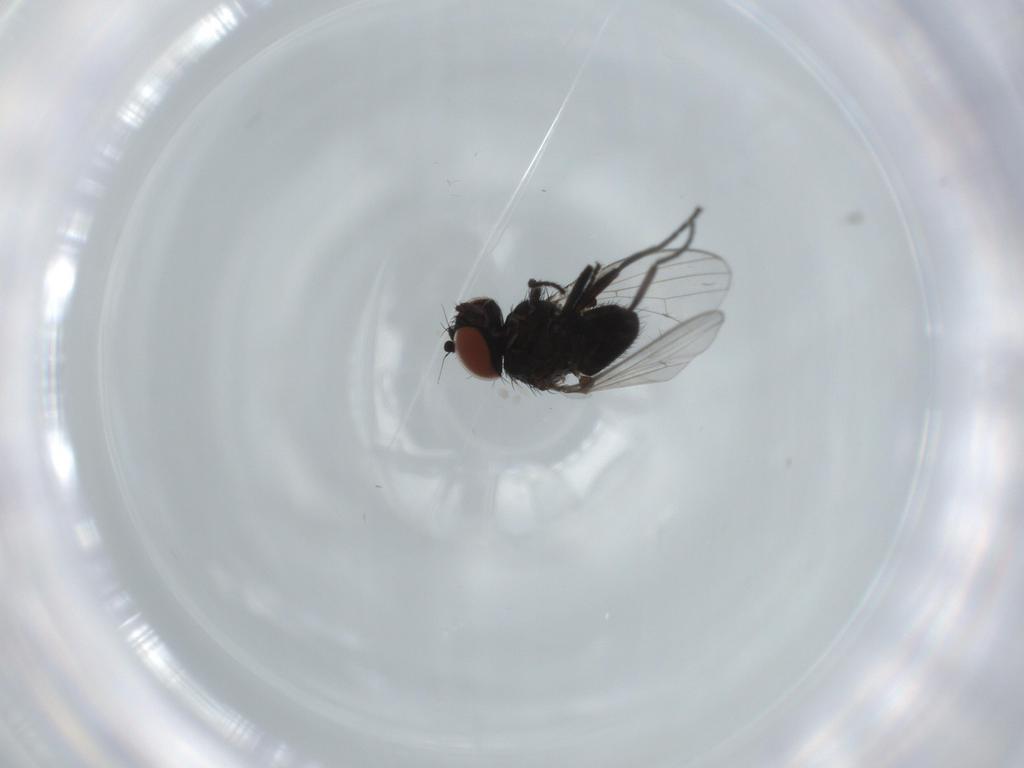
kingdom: Animalia
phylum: Arthropoda
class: Insecta
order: Diptera
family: Milichiidae
